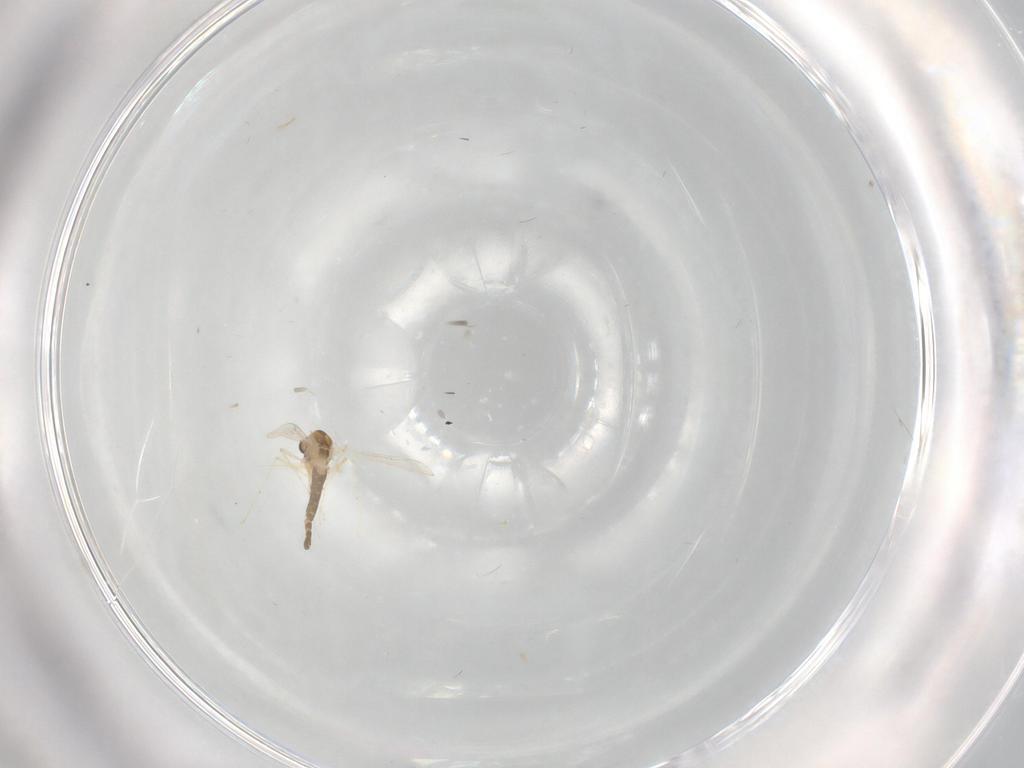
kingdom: Animalia
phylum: Arthropoda
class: Insecta
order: Diptera
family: Chironomidae
